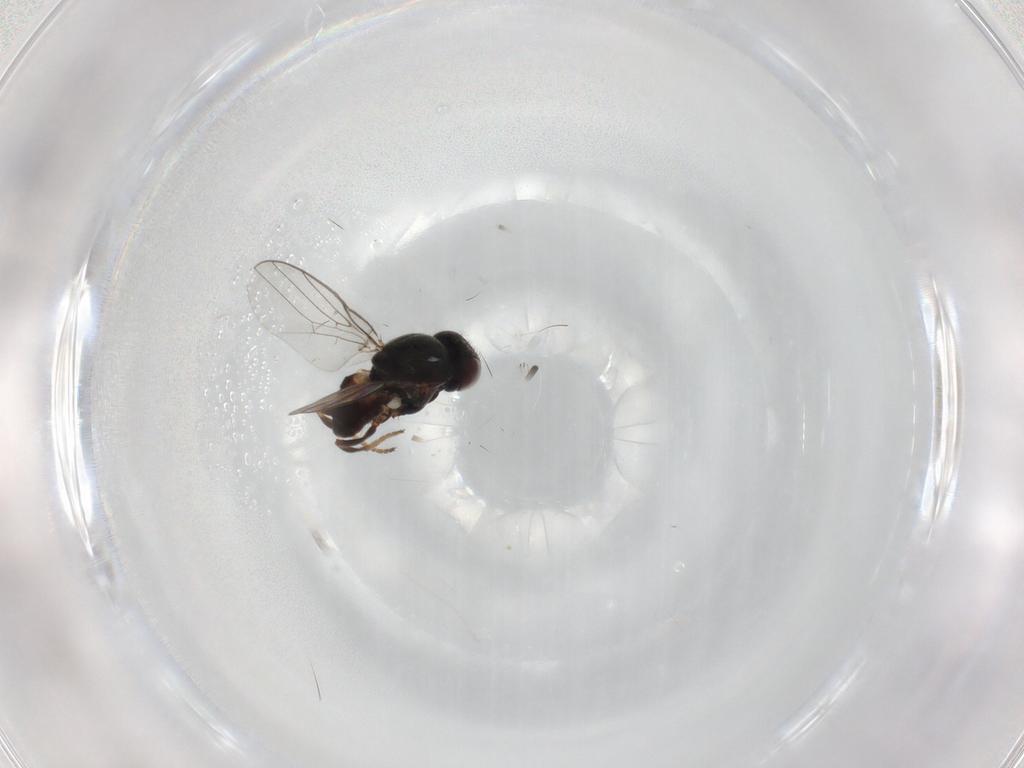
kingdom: Animalia
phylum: Arthropoda
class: Insecta
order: Diptera
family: Chloropidae
